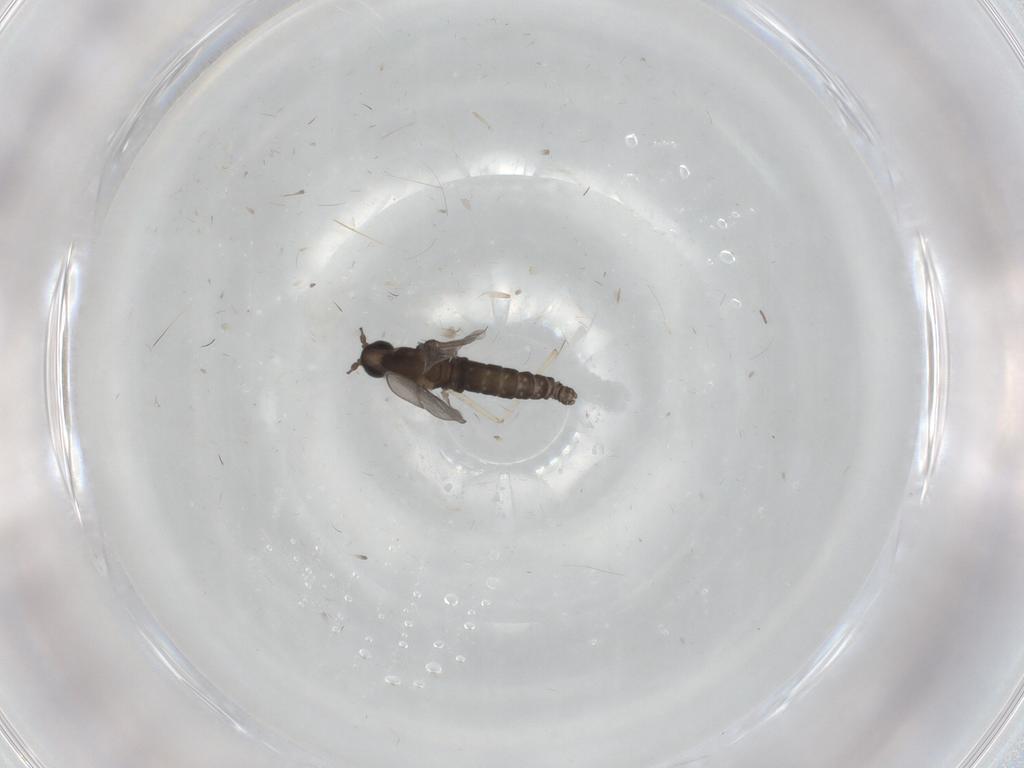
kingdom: Animalia
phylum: Arthropoda
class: Insecta
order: Diptera
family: Cecidomyiidae
